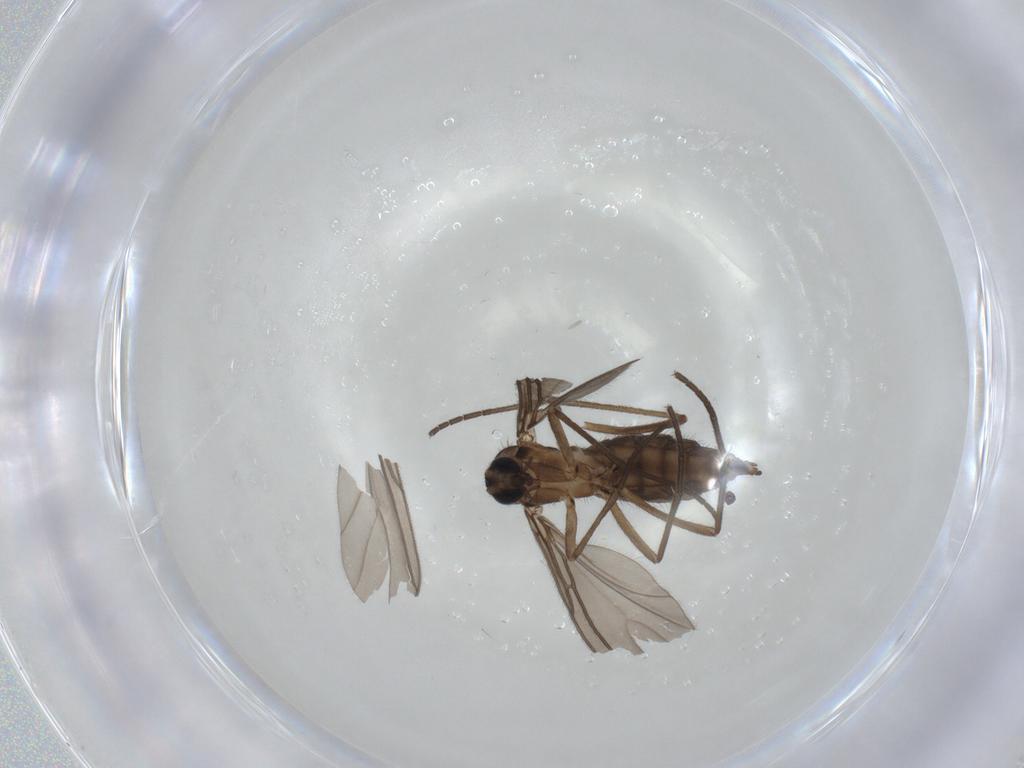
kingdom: Animalia
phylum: Arthropoda
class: Insecta
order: Diptera
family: Sciaridae
